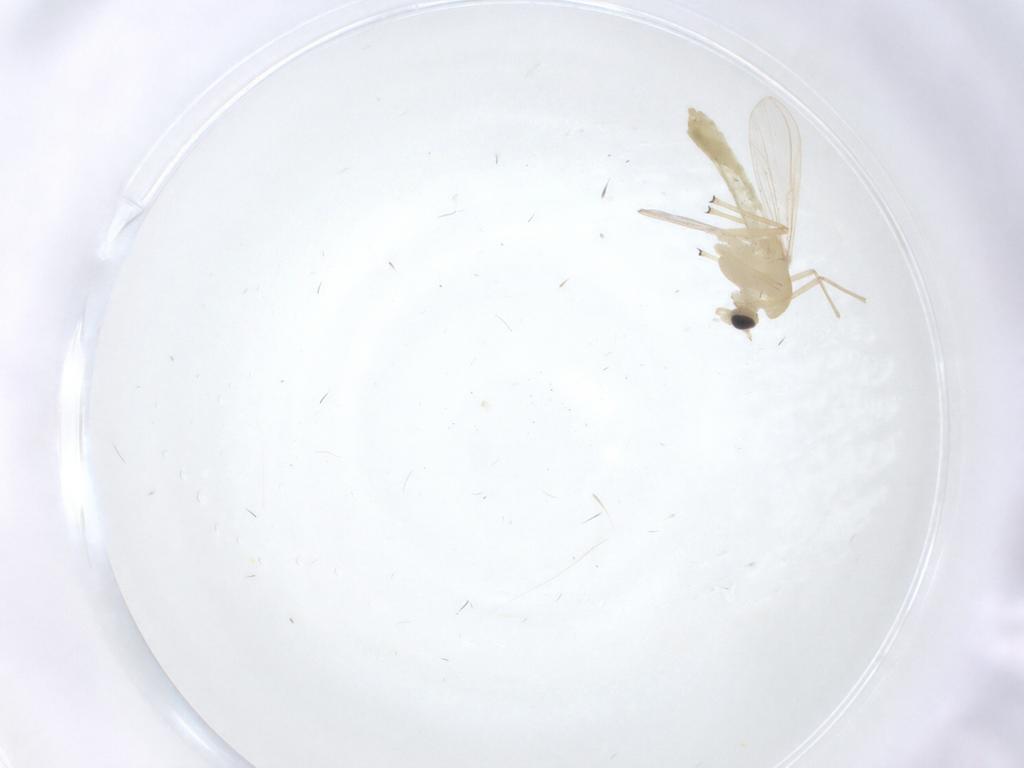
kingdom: Animalia
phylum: Arthropoda
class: Insecta
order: Diptera
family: Chironomidae
